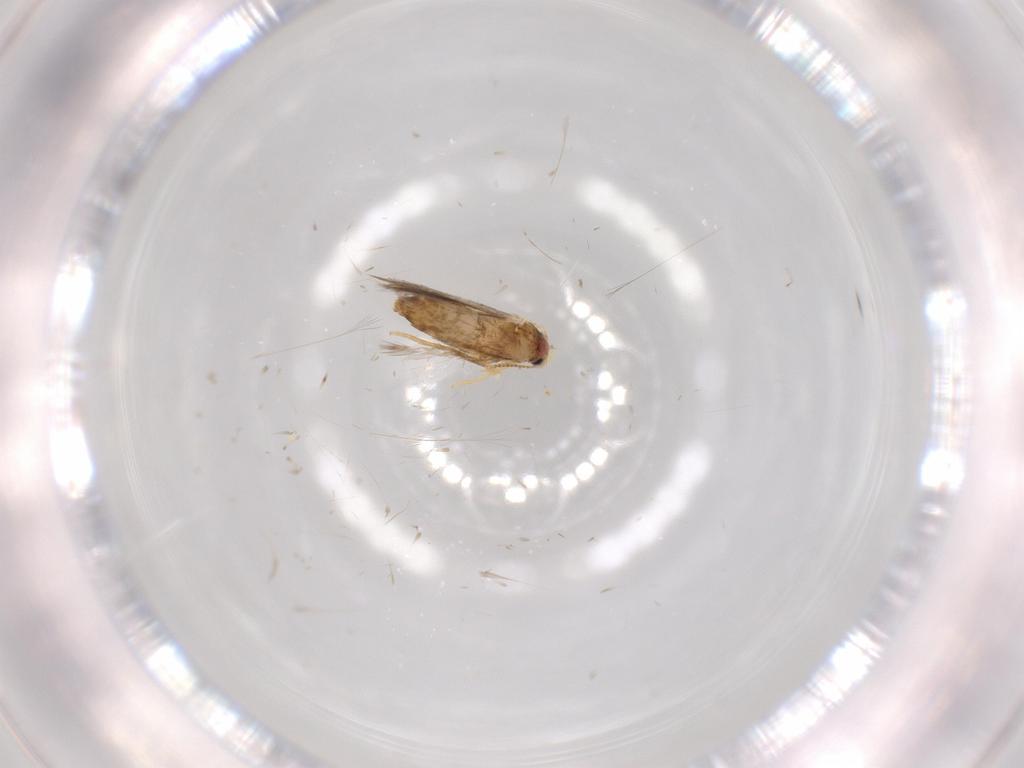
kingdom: Animalia
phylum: Arthropoda
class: Insecta
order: Lepidoptera
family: Nepticulidae
